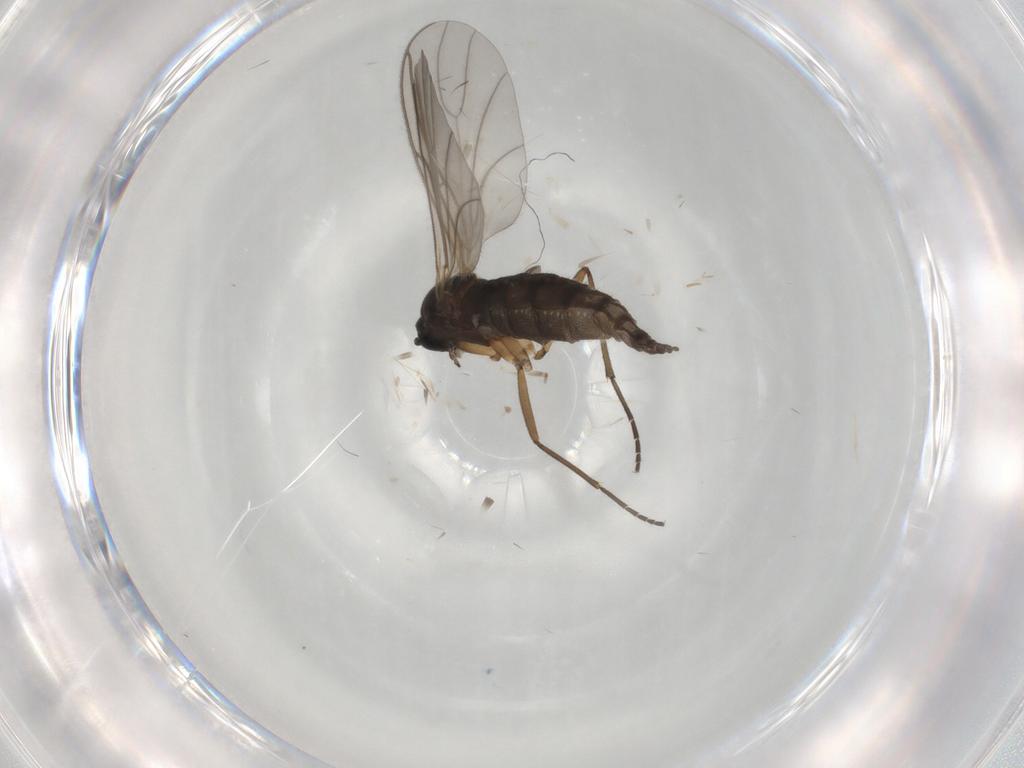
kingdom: Animalia
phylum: Arthropoda
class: Insecta
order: Diptera
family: Sciaridae
